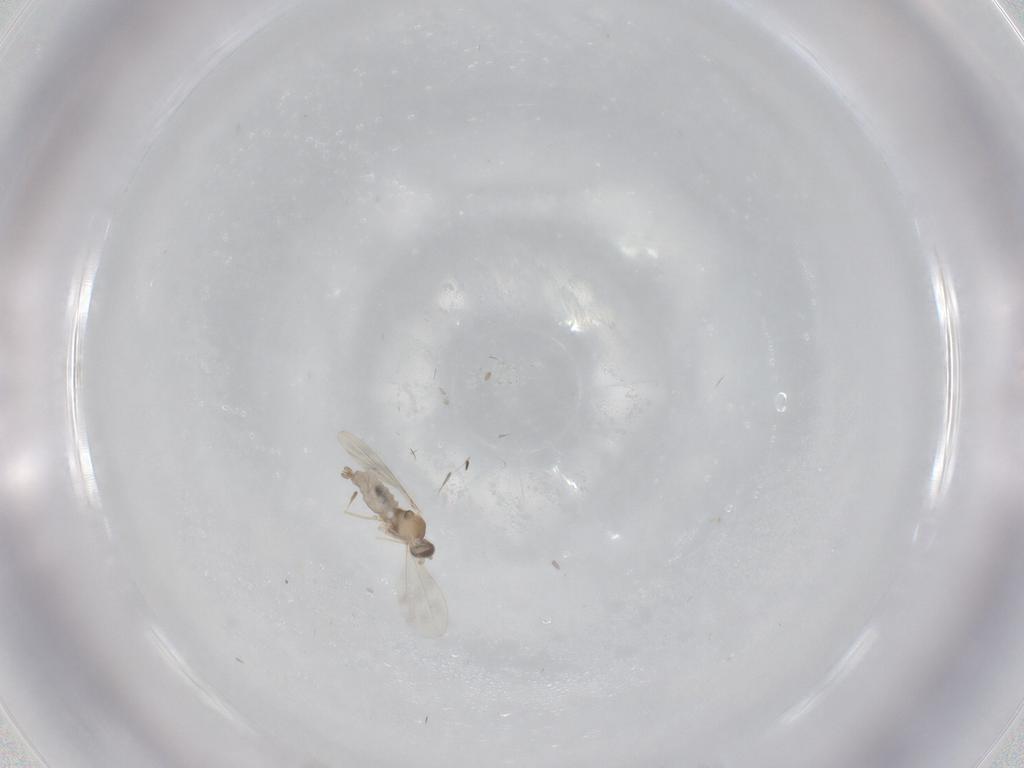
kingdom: Animalia
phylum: Arthropoda
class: Insecta
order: Diptera
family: Cecidomyiidae
